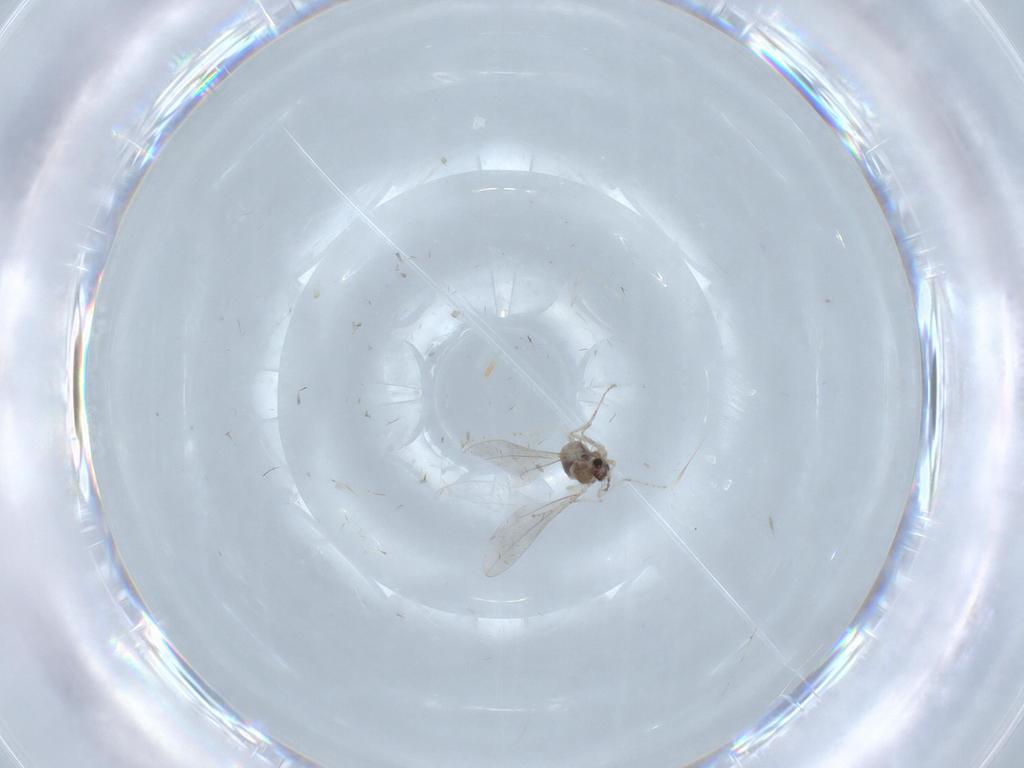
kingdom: Animalia
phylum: Arthropoda
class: Insecta
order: Diptera
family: Cecidomyiidae
